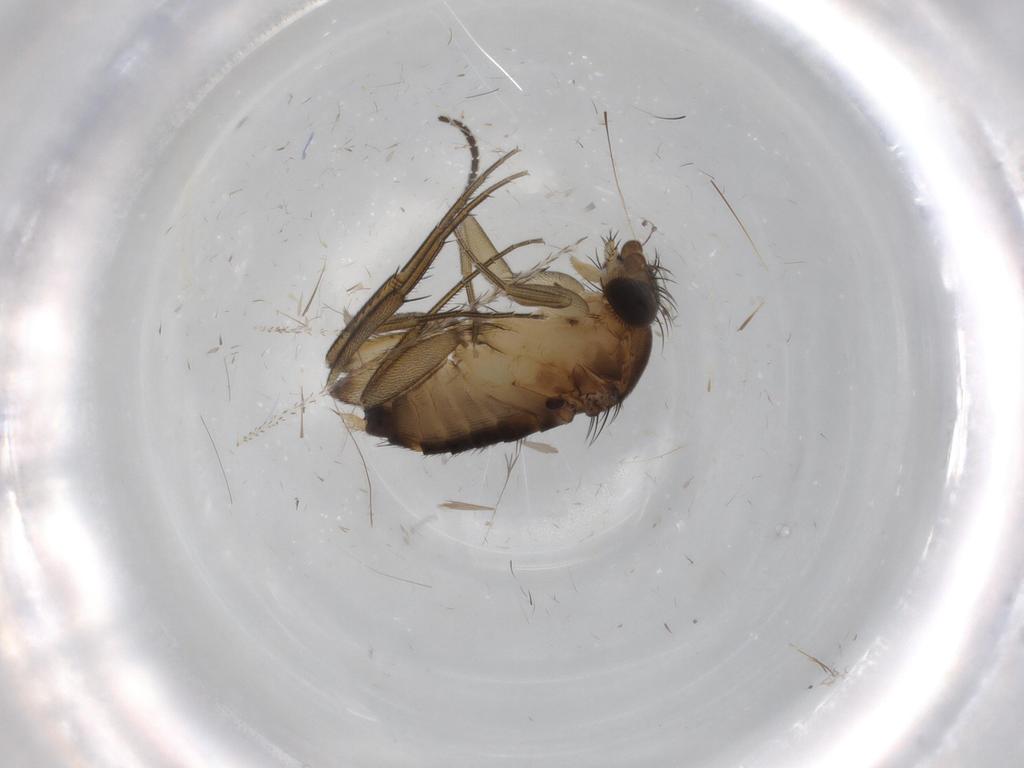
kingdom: Animalia
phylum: Arthropoda
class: Insecta
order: Diptera
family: Phoridae
